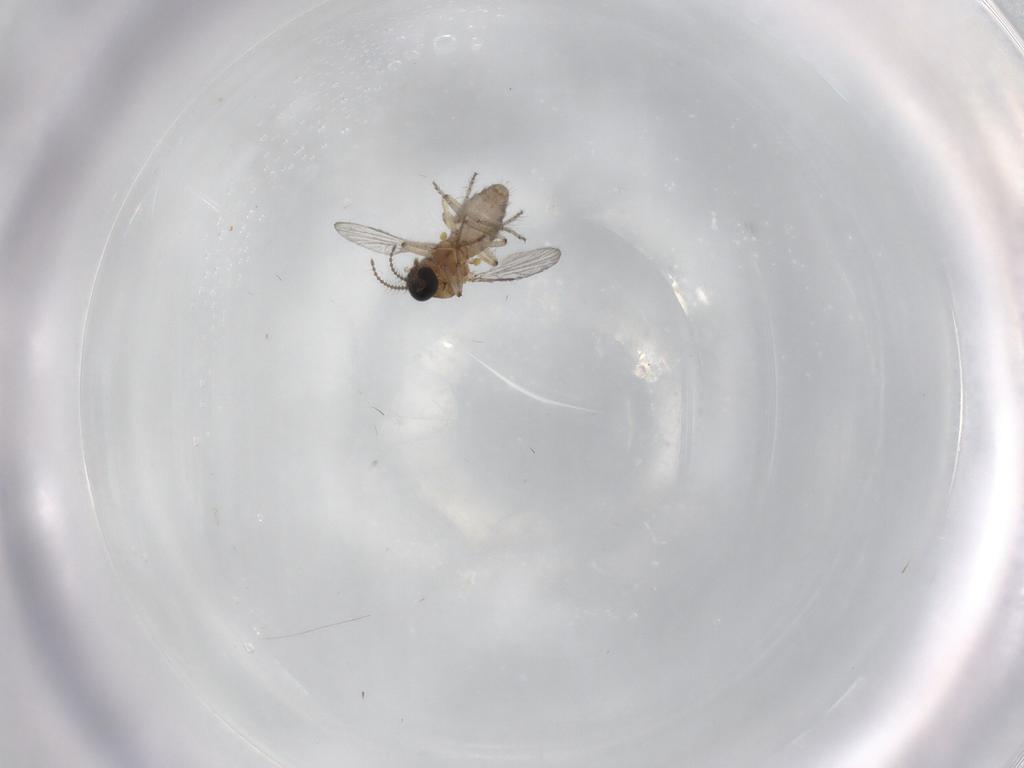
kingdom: Animalia
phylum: Arthropoda
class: Insecta
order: Diptera
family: Ceratopogonidae
